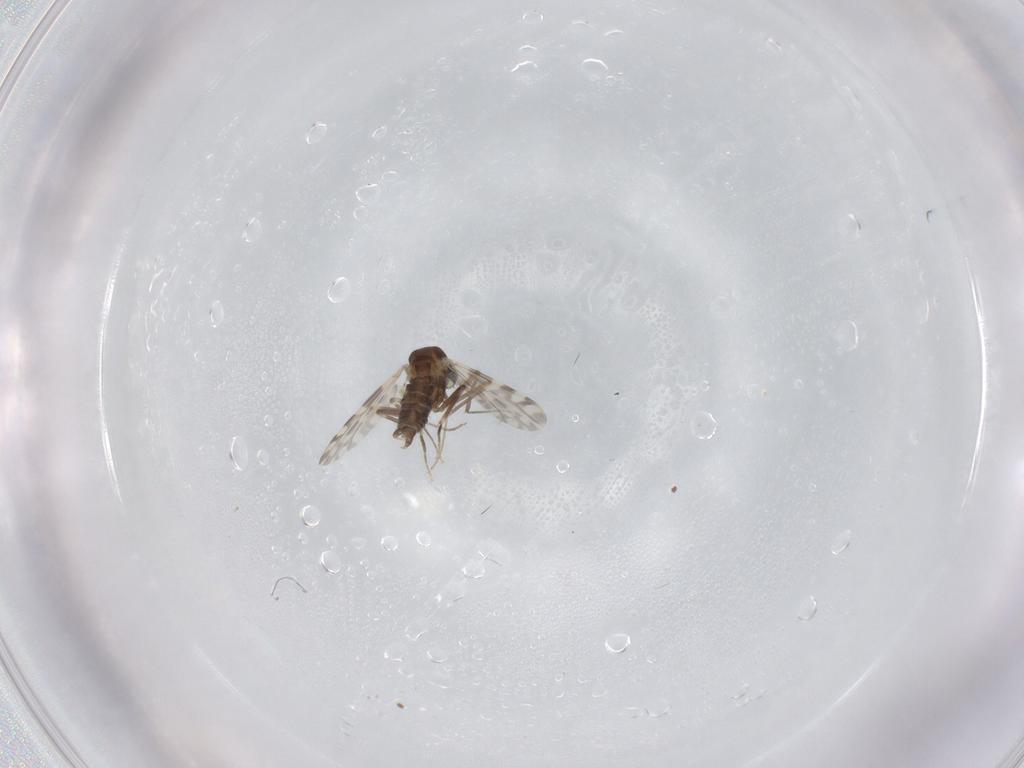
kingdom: Animalia
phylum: Arthropoda
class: Insecta
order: Diptera
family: Ceratopogonidae
